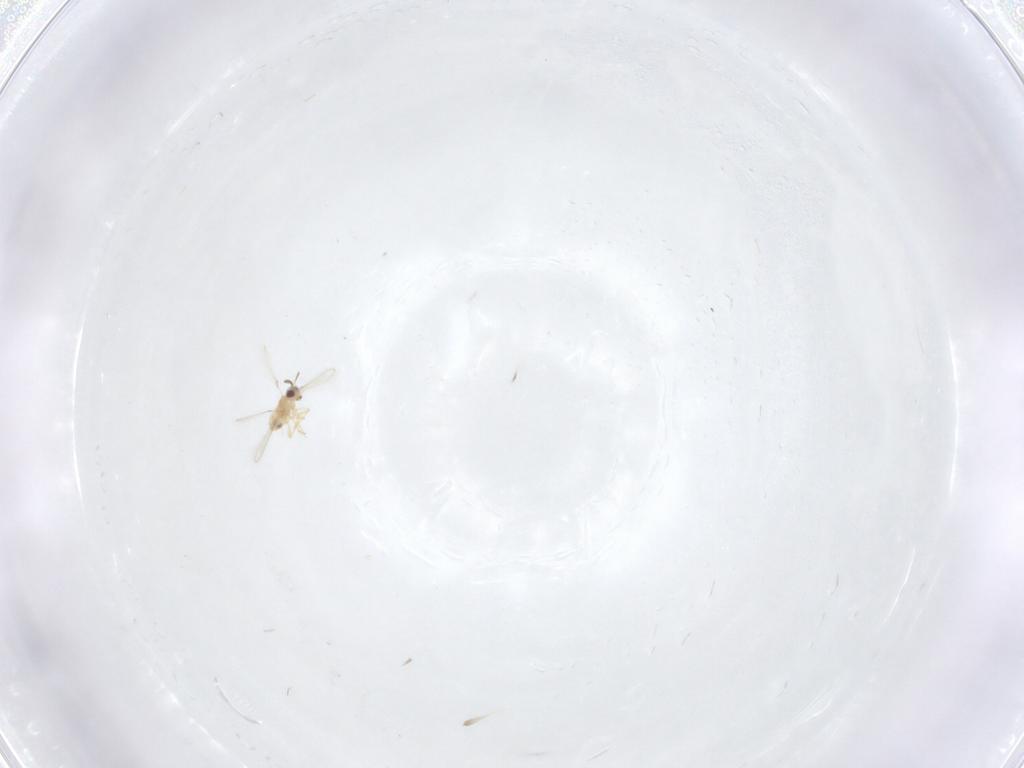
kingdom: Animalia
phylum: Arthropoda
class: Insecta
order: Hymenoptera
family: Mymaridae
